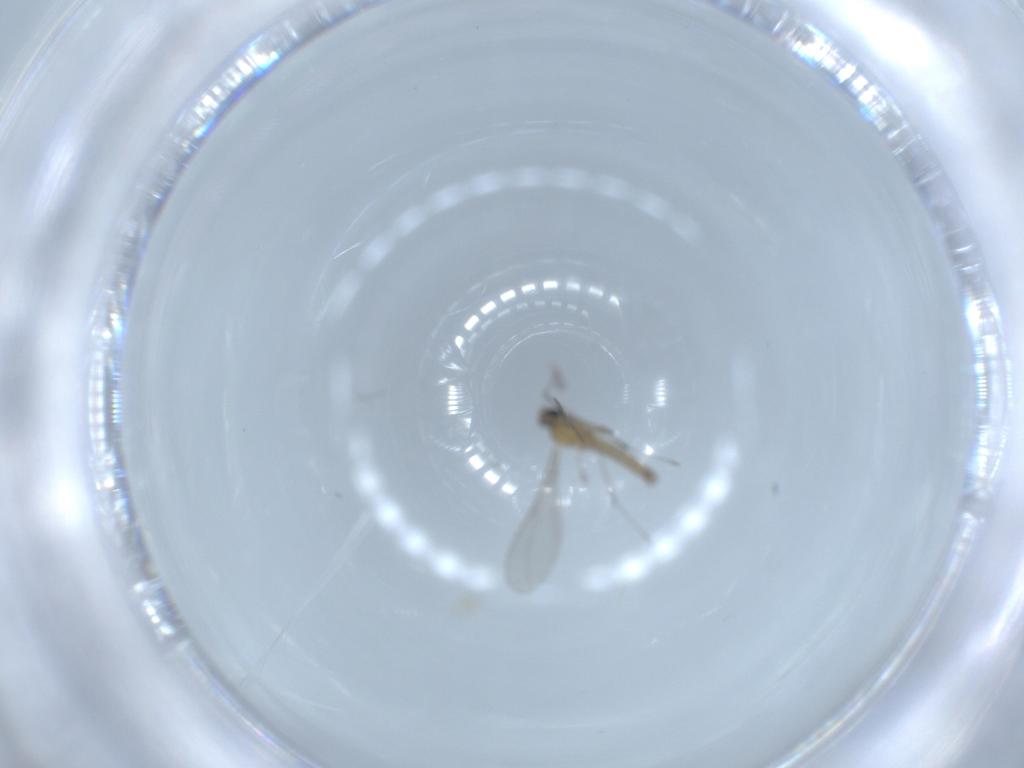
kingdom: Animalia
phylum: Arthropoda
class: Insecta
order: Diptera
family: Cecidomyiidae
